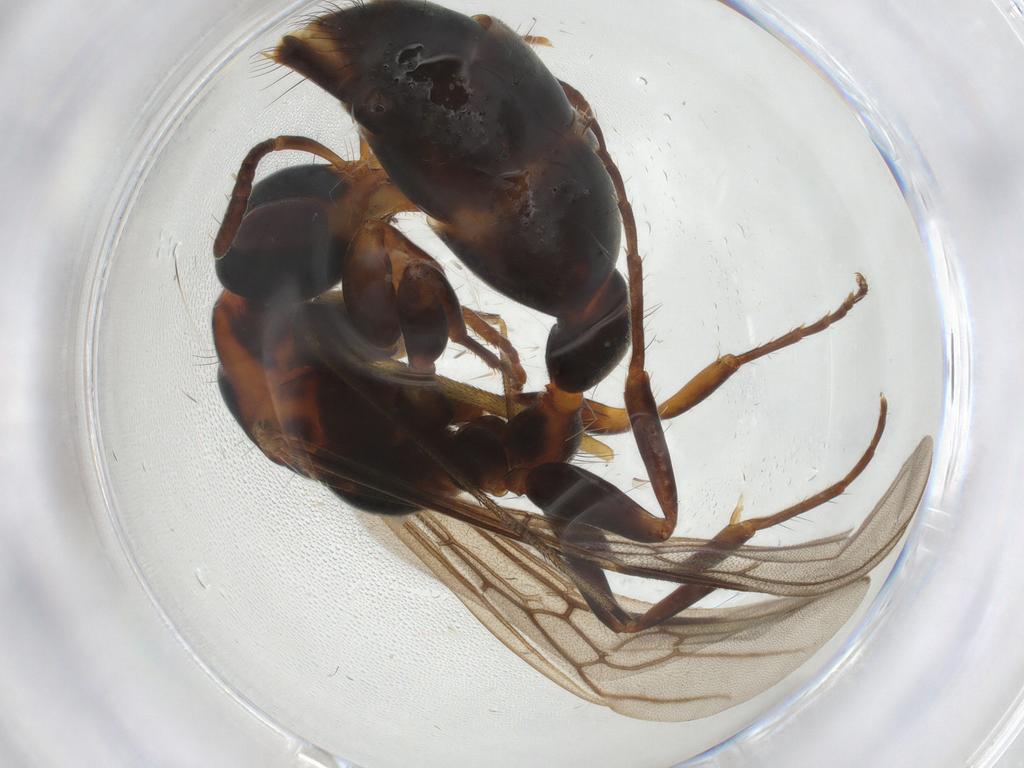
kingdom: Animalia
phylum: Arthropoda
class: Insecta
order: Hymenoptera
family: Formicidae
